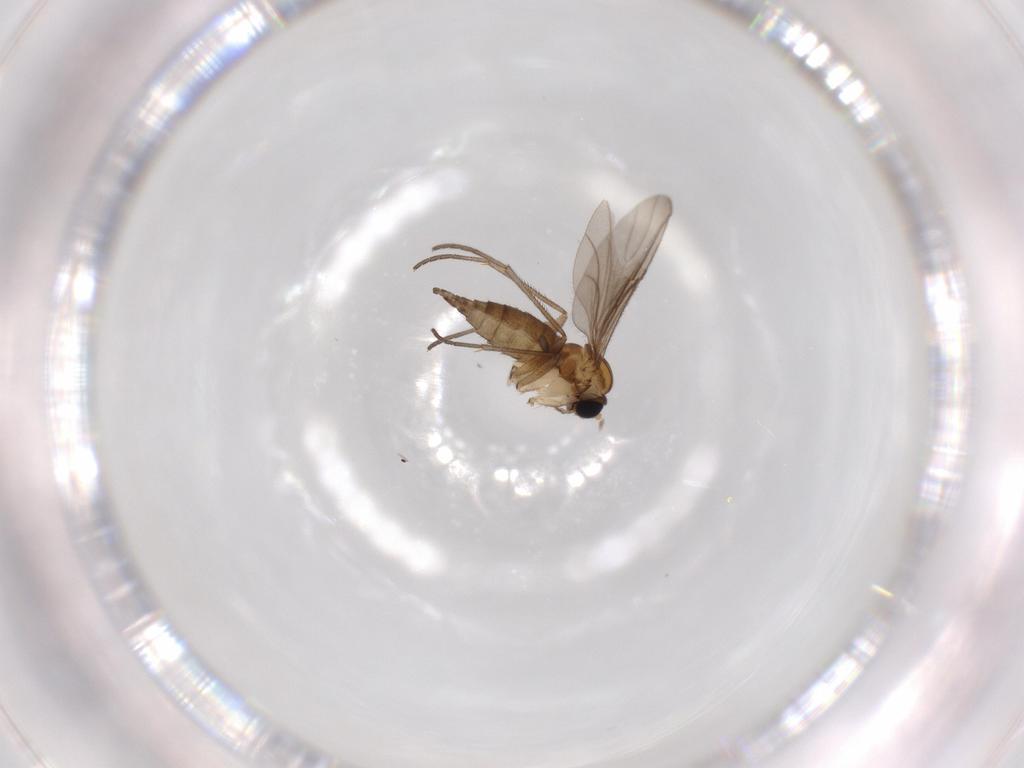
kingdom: Animalia
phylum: Arthropoda
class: Insecta
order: Diptera
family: Sciaridae
